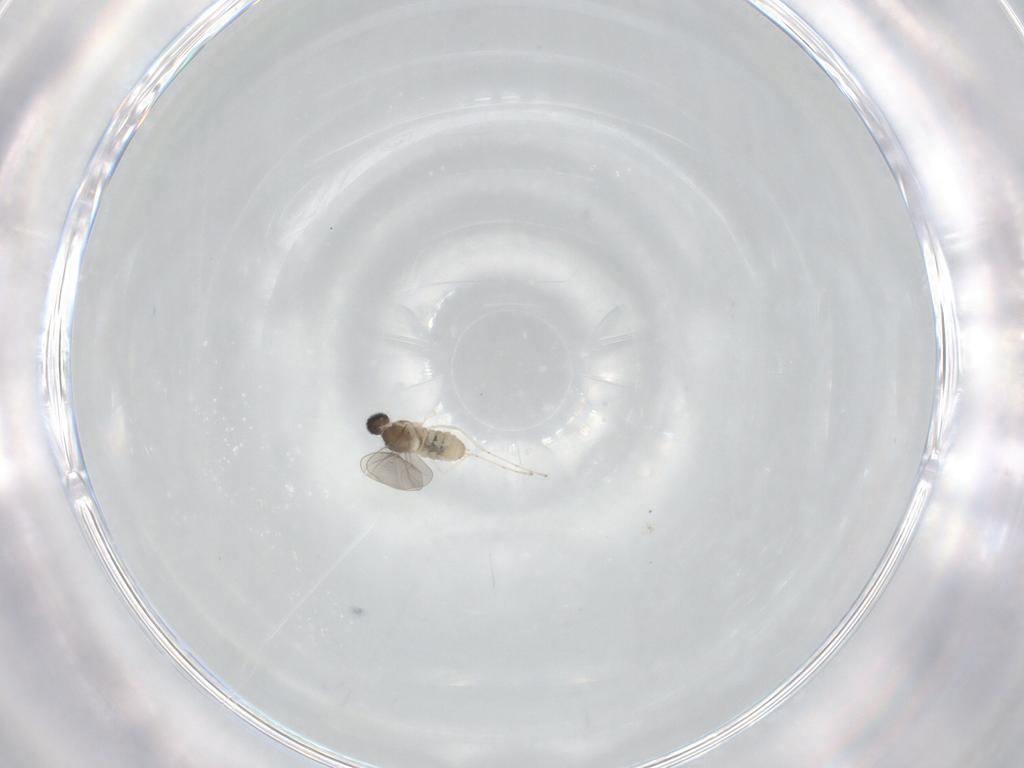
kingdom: Animalia
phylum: Arthropoda
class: Insecta
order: Diptera
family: Cecidomyiidae
